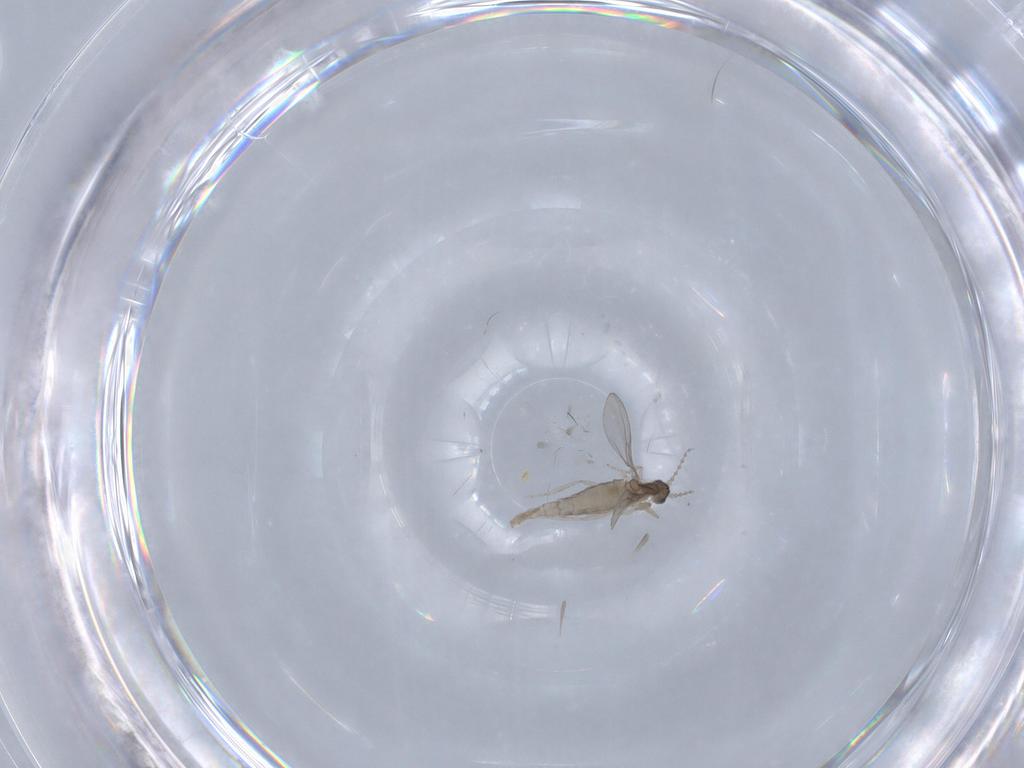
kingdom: Animalia
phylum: Arthropoda
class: Insecta
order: Diptera
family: Cecidomyiidae
